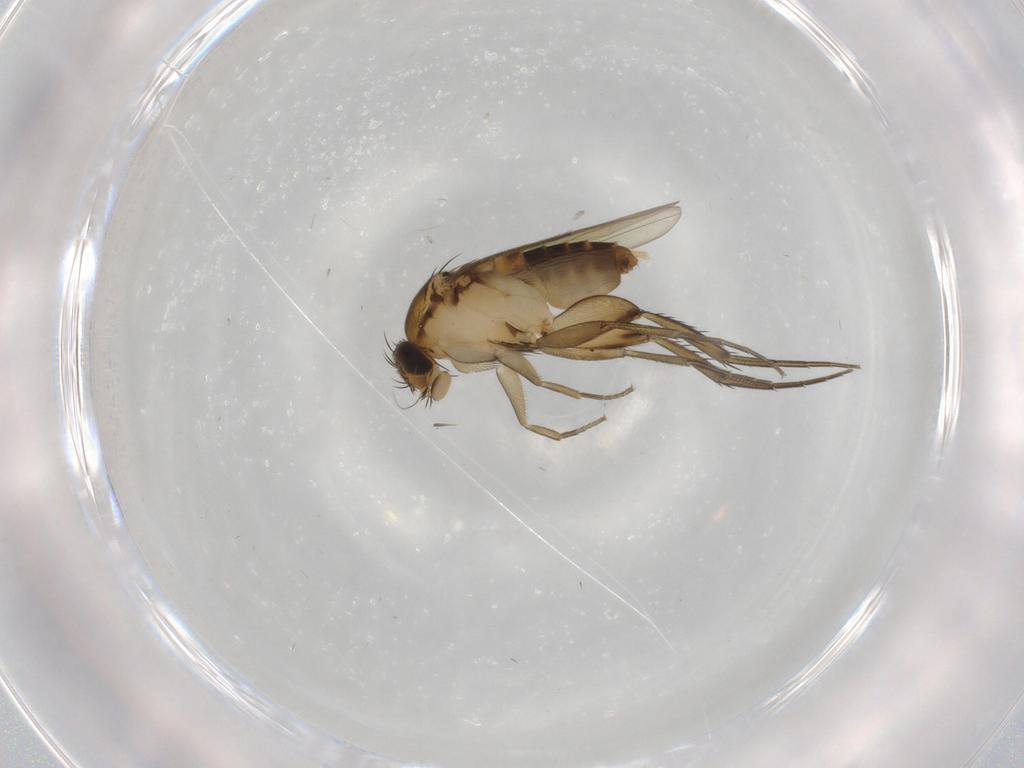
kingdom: Animalia
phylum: Arthropoda
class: Insecta
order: Diptera
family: Phoridae
